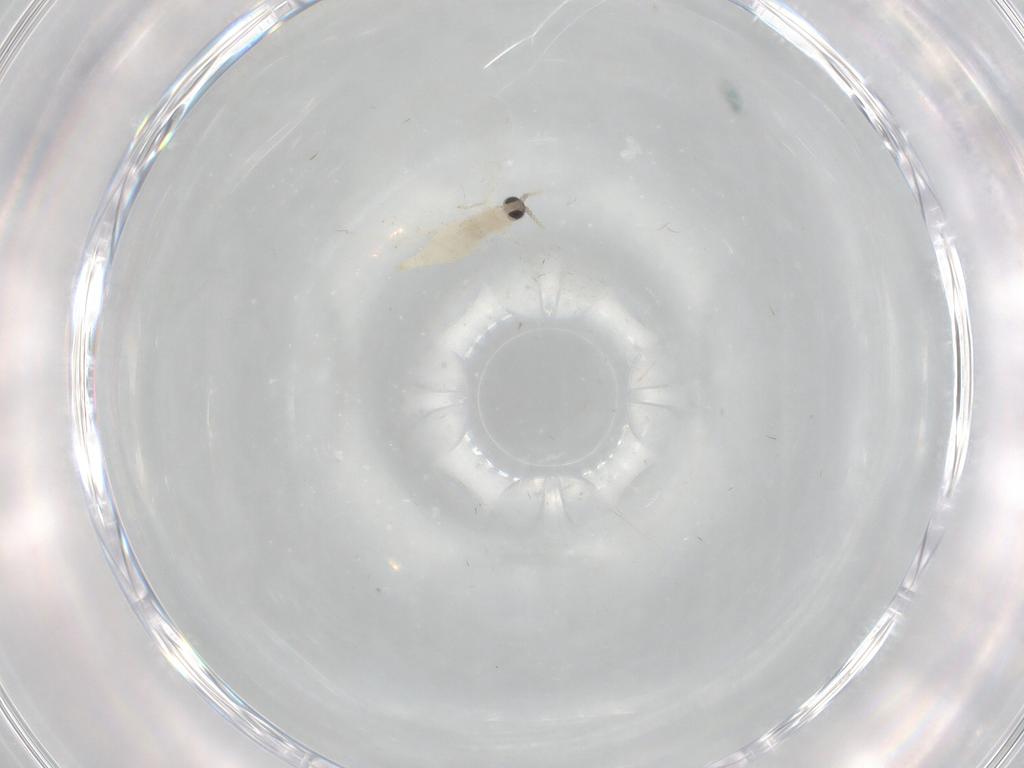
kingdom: Animalia
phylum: Arthropoda
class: Insecta
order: Diptera
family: Cecidomyiidae
